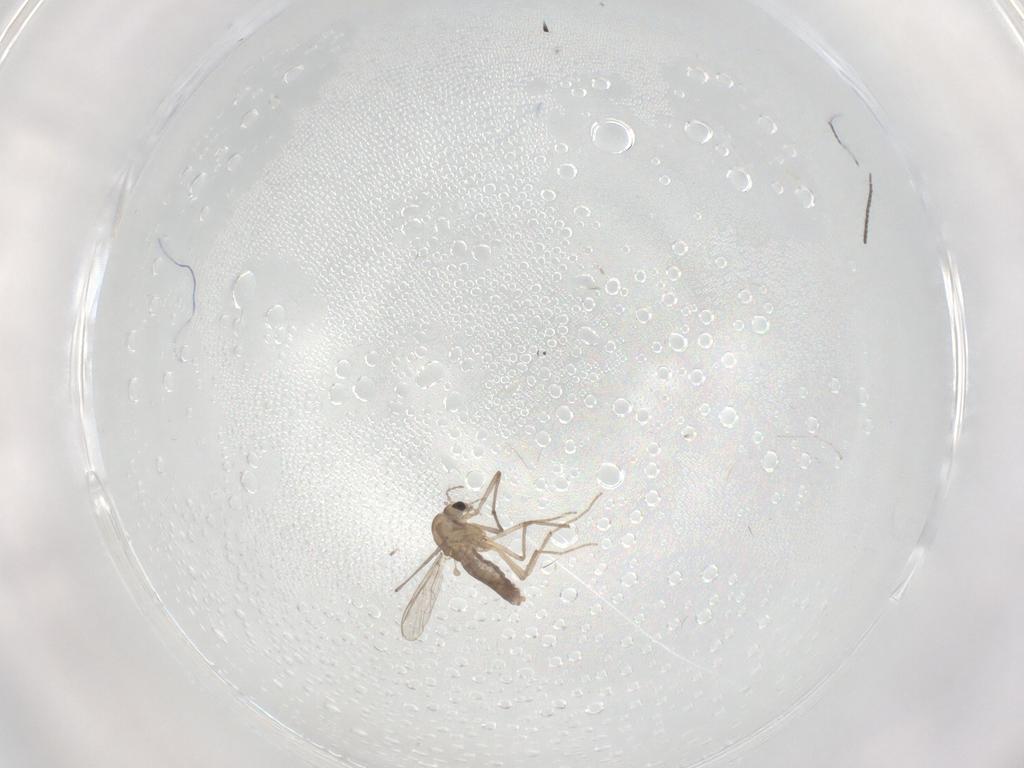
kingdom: Animalia
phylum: Arthropoda
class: Insecta
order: Diptera
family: Chironomidae
